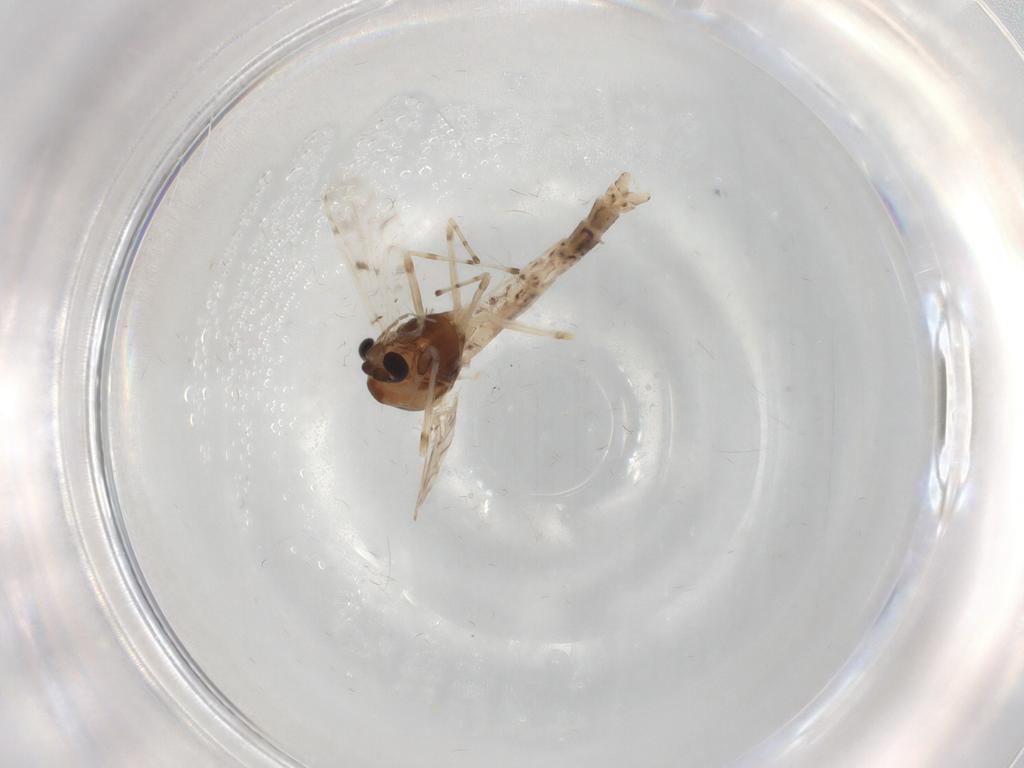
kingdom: Animalia
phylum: Arthropoda
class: Insecta
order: Diptera
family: Chironomidae
